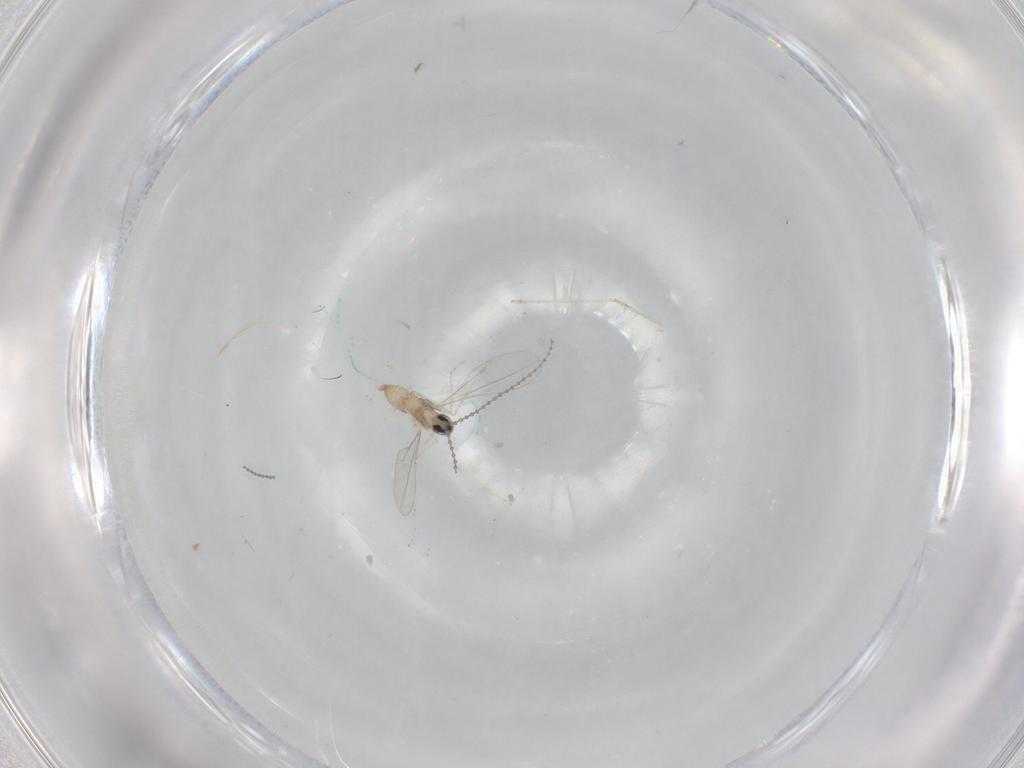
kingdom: Animalia
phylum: Arthropoda
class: Insecta
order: Diptera
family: Cecidomyiidae
